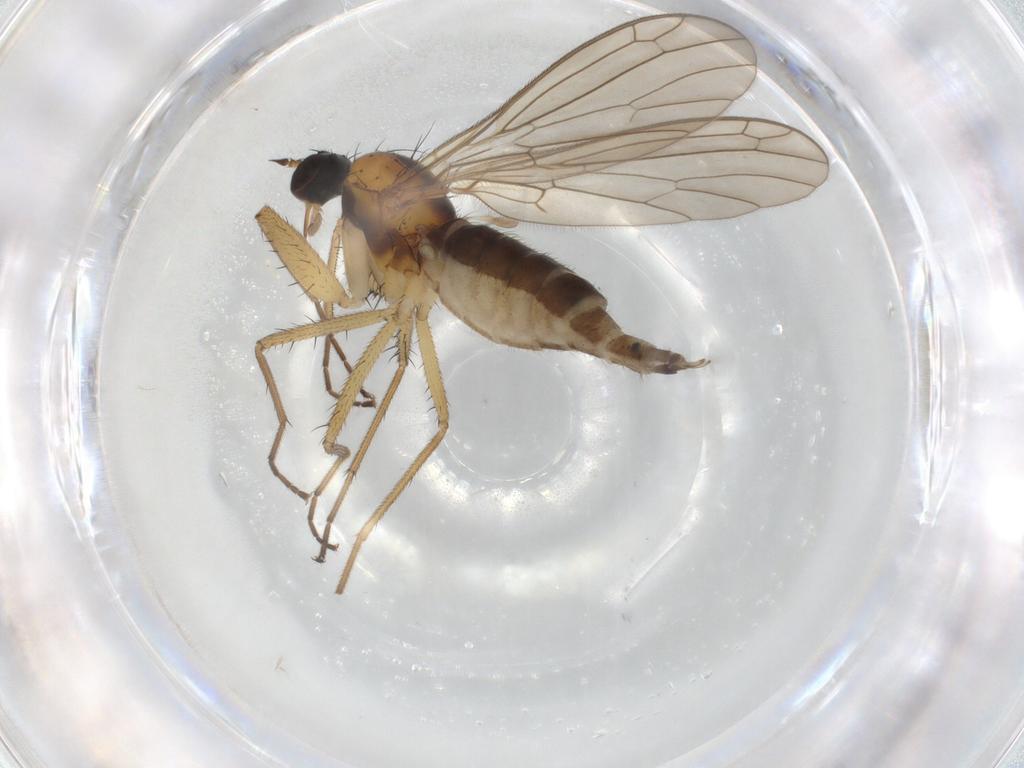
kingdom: Animalia
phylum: Arthropoda
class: Insecta
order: Diptera
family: Empididae
